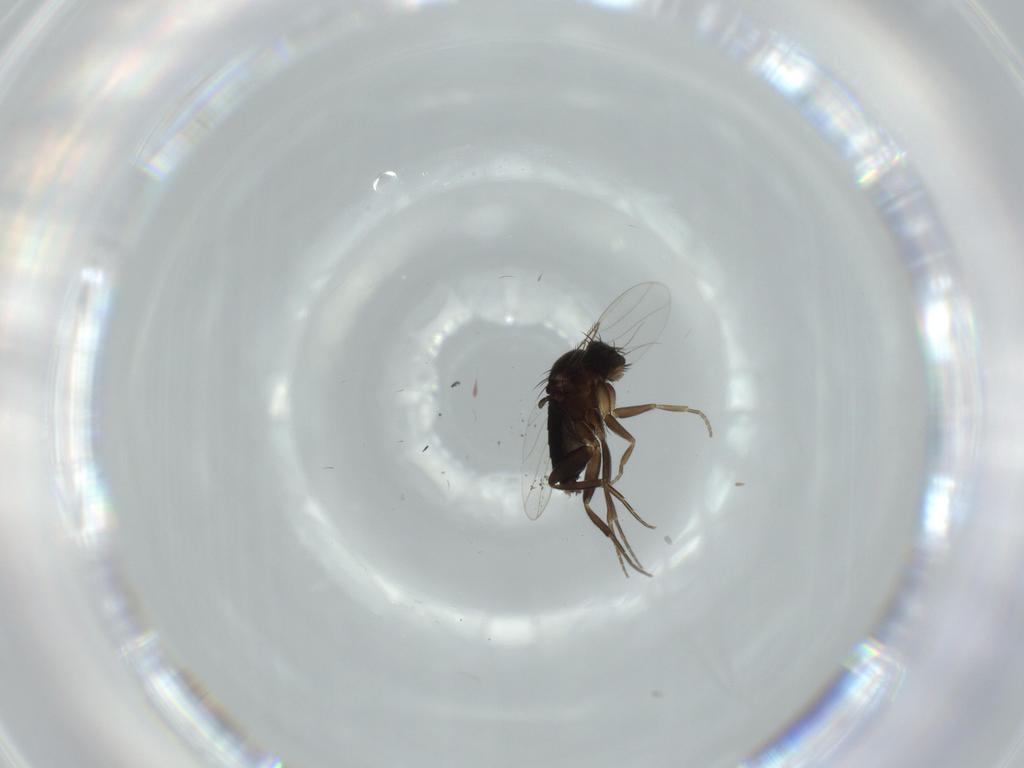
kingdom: Animalia
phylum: Arthropoda
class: Insecta
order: Diptera
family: Phoridae
